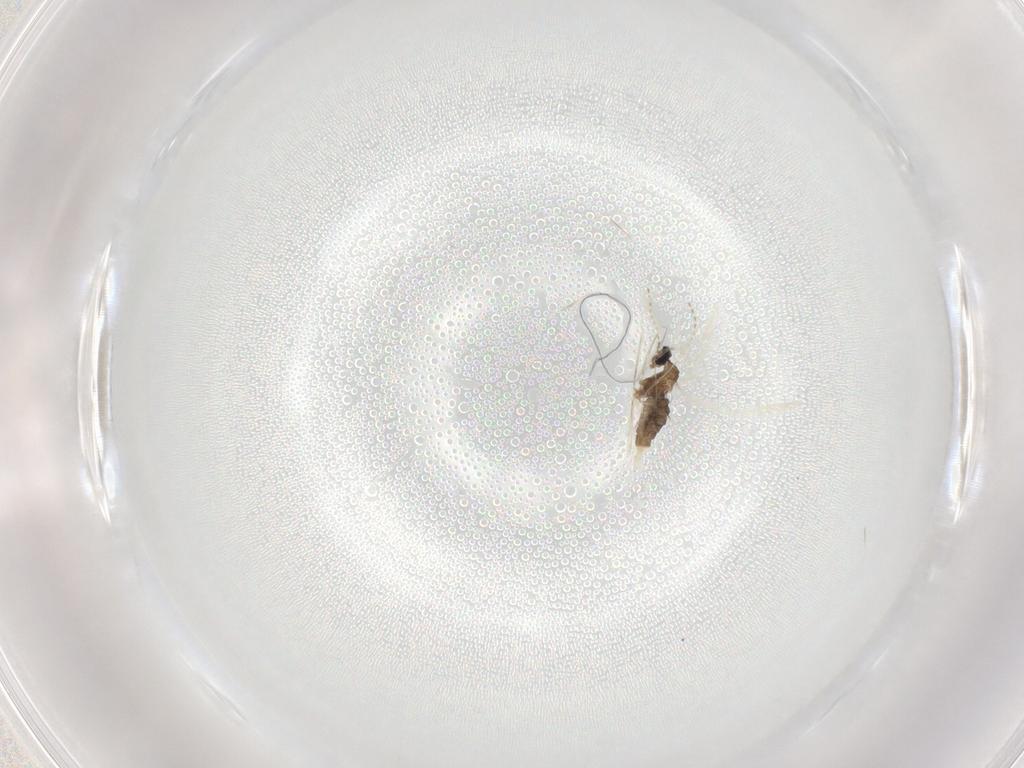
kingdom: Animalia
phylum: Arthropoda
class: Insecta
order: Diptera
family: Cecidomyiidae
